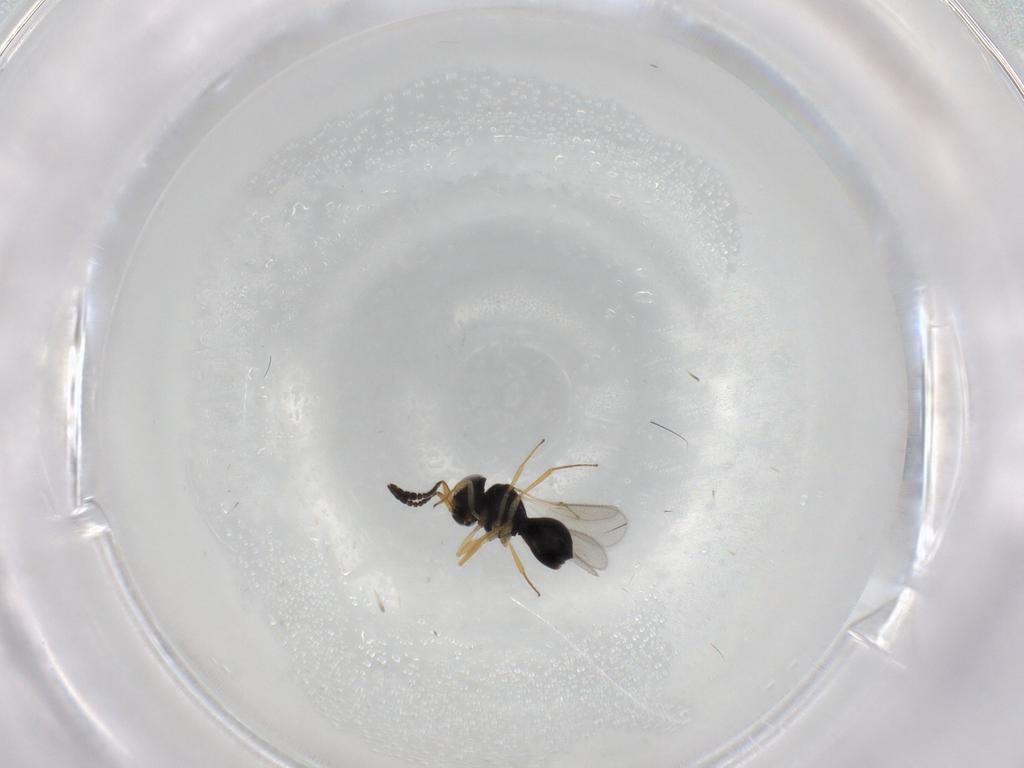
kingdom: Animalia
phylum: Arthropoda
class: Insecta
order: Hymenoptera
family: Scelionidae
